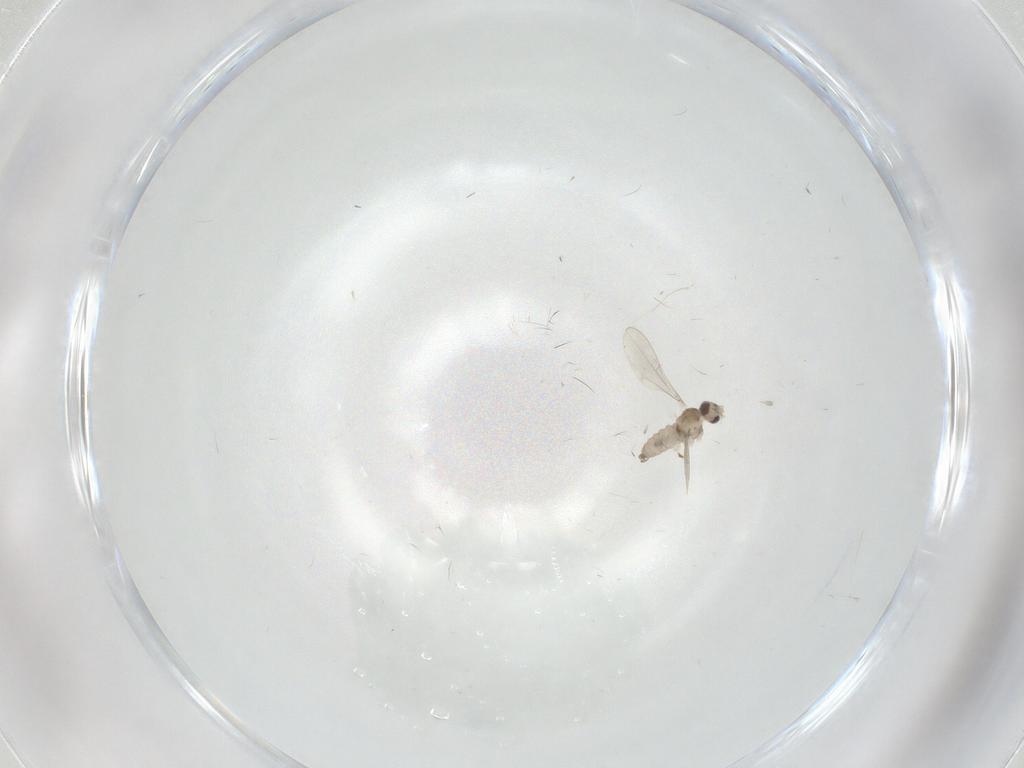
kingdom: Animalia
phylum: Arthropoda
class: Insecta
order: Diptera
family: Cecidomyiidae
